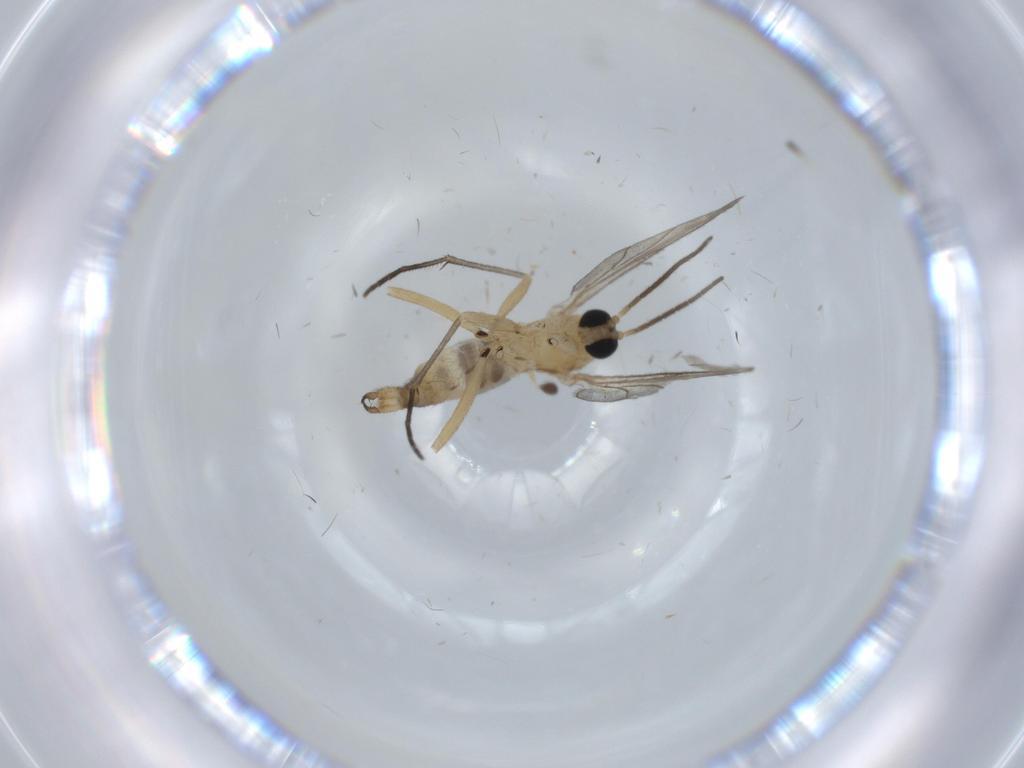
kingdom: Animalia
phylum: Arthropoda
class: Insecta
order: Diptera
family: Sciaridae
